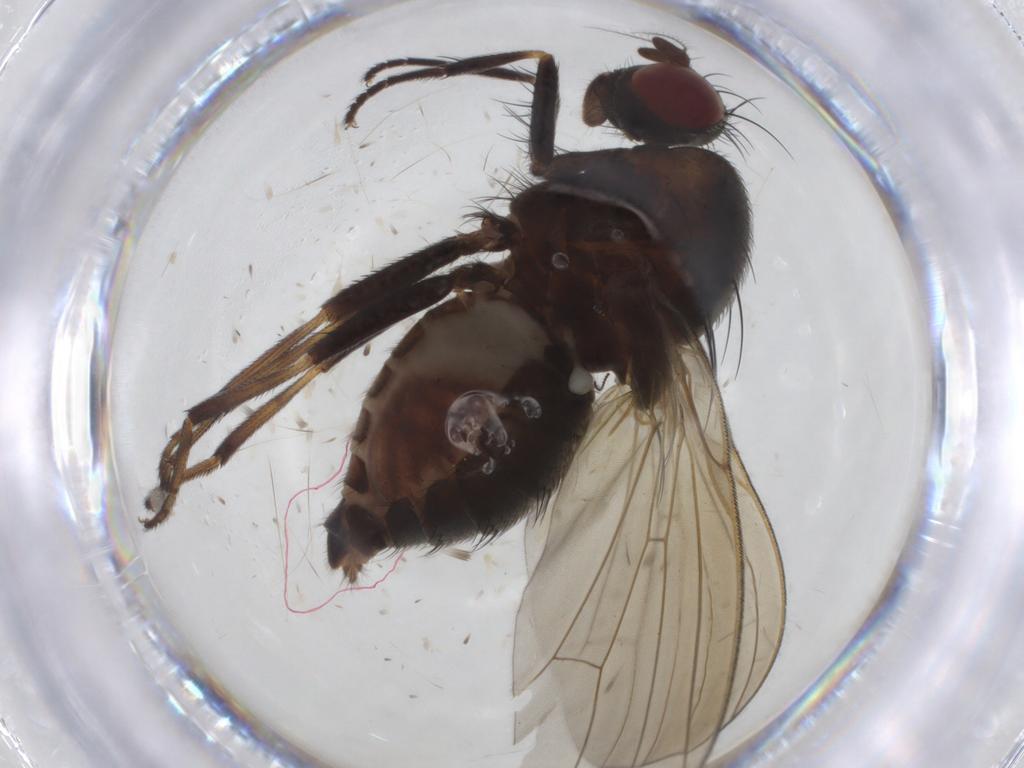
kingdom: Animalia
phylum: Arthropoda
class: Insecta
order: Diptera
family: Ceratopogonidae
